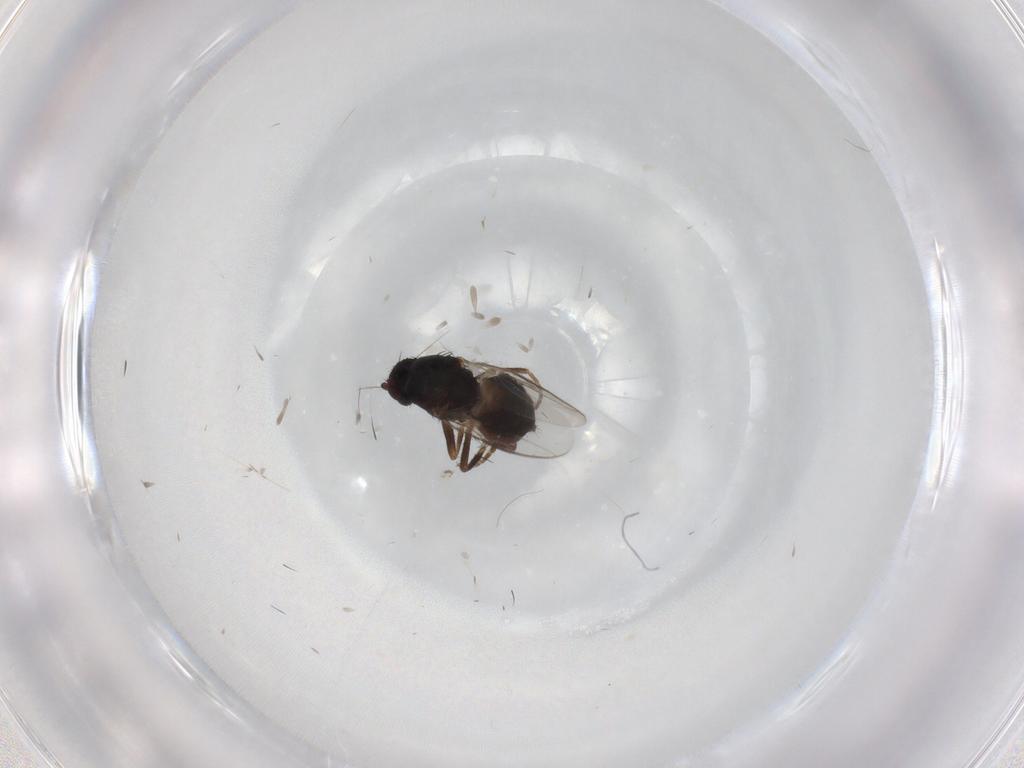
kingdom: Animalia
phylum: Arthropoda
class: Insecta
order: Diptera
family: Sphaeroceridae
